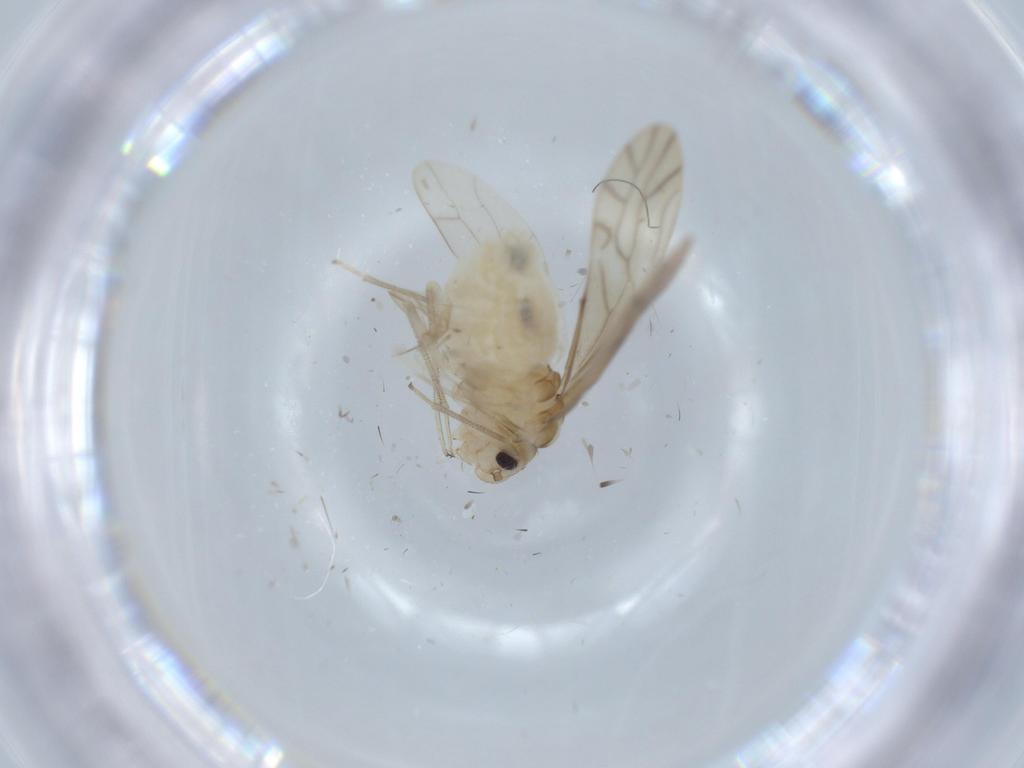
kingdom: Animalia
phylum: Arthropoda
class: Insecta
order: Psocodea
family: Caeciliusidae
